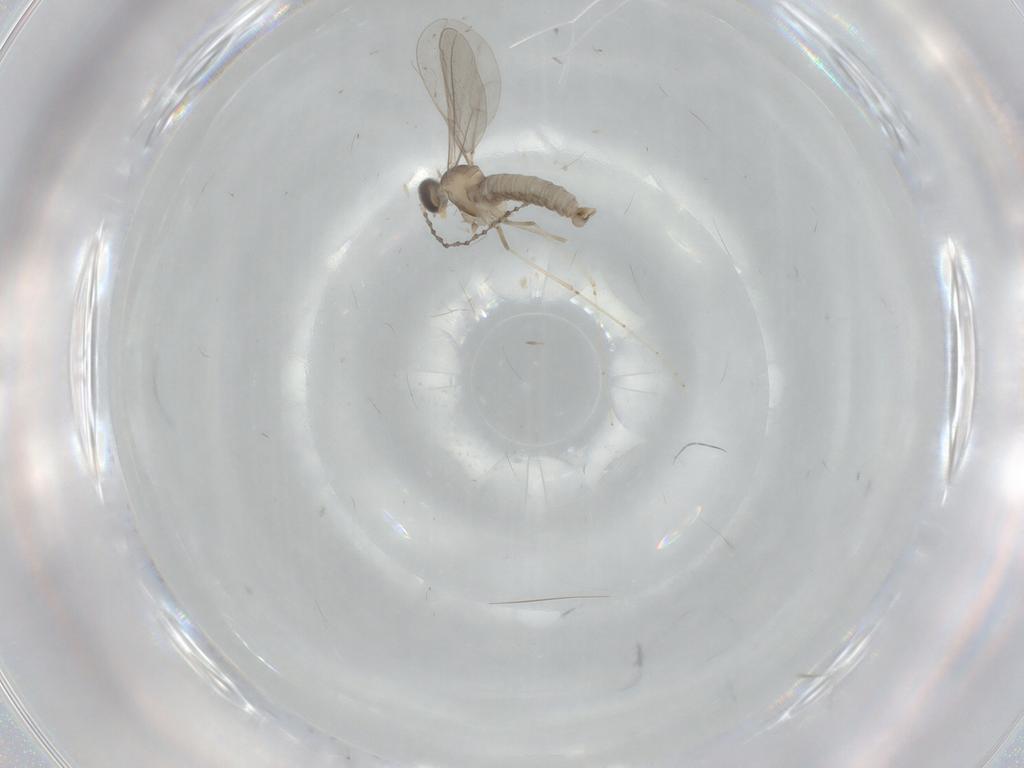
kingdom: Animalia
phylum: Arthropoda
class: Insecta
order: Diptera
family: Cecidomyiidae
